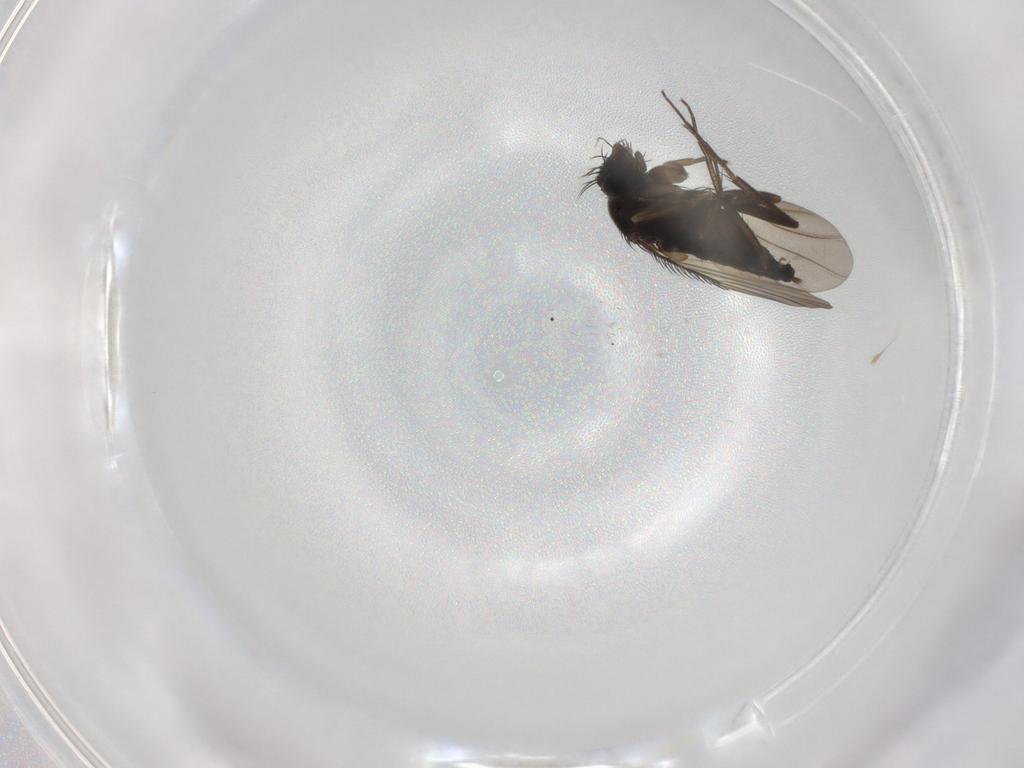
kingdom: Animalia
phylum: Arthropoda
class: Insecta
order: Diptera
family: Phoridae
